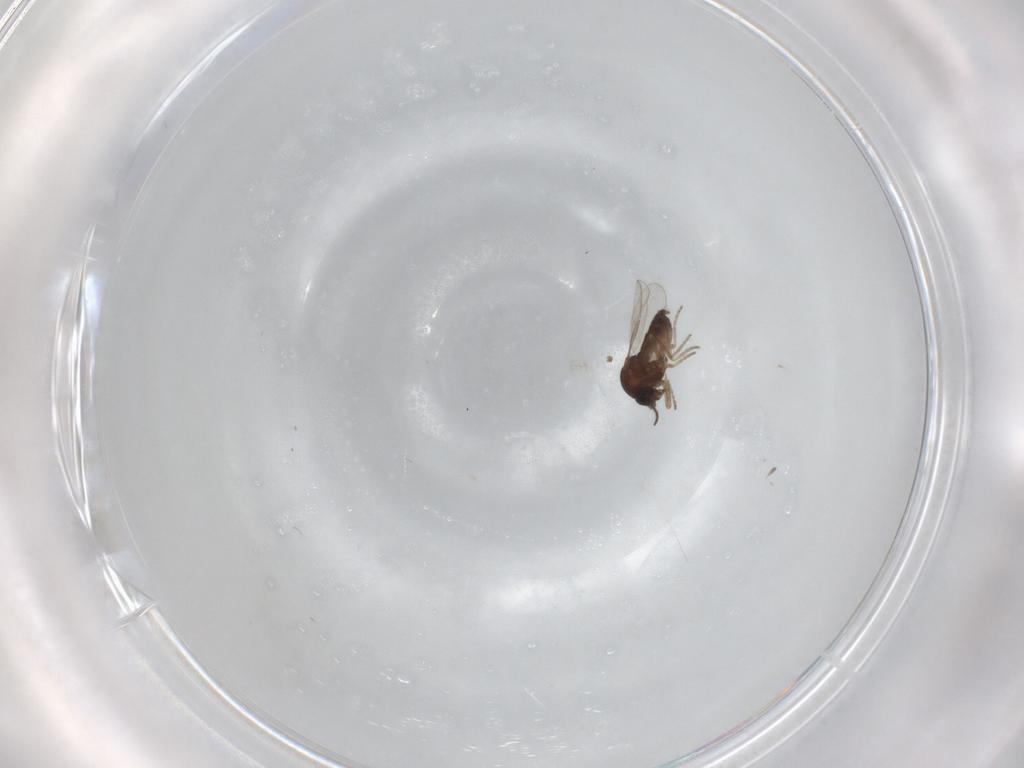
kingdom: Animalia
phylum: Arthropoda
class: Insecta
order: Diptera
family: Ceratopogonidae
